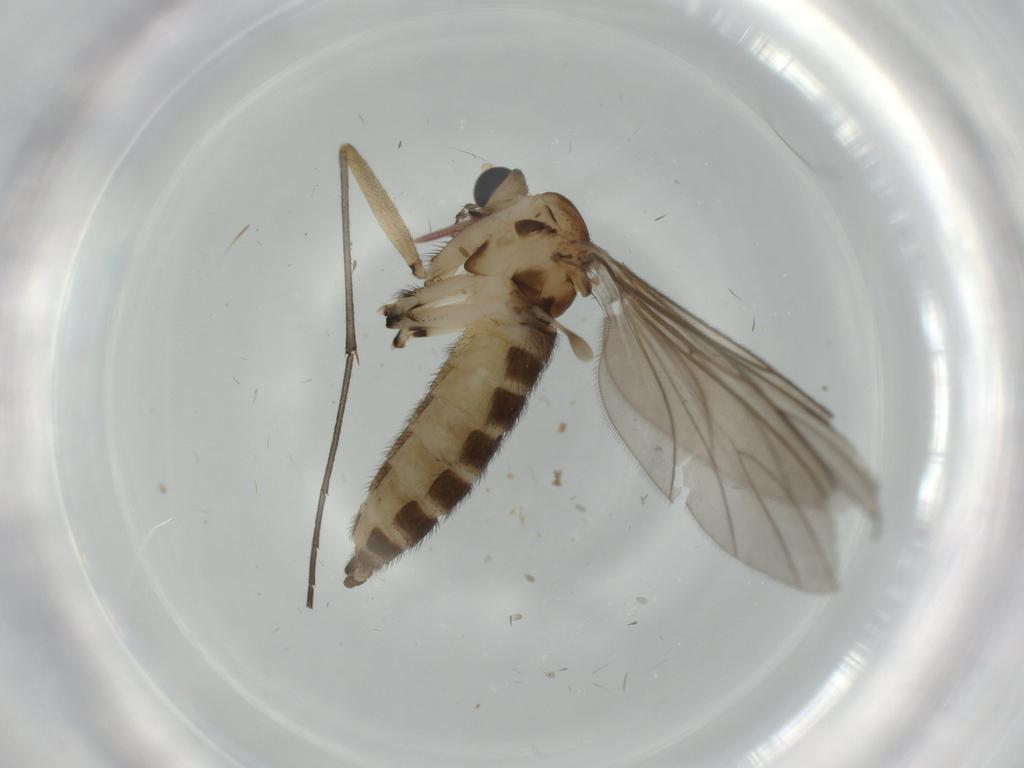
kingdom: Animalia
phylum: Arthropoda
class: Insecta
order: Diptera
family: Sciaridae
